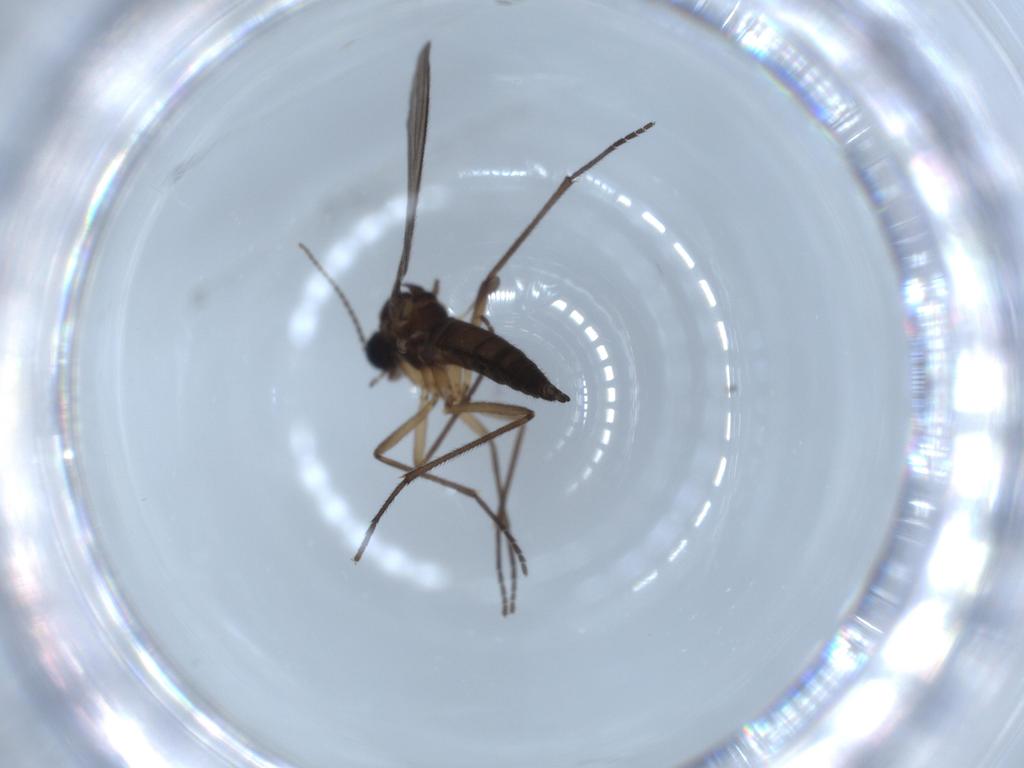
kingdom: Animalia
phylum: Arthropoda
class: Insecta
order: Diptera
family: Sciaridae
